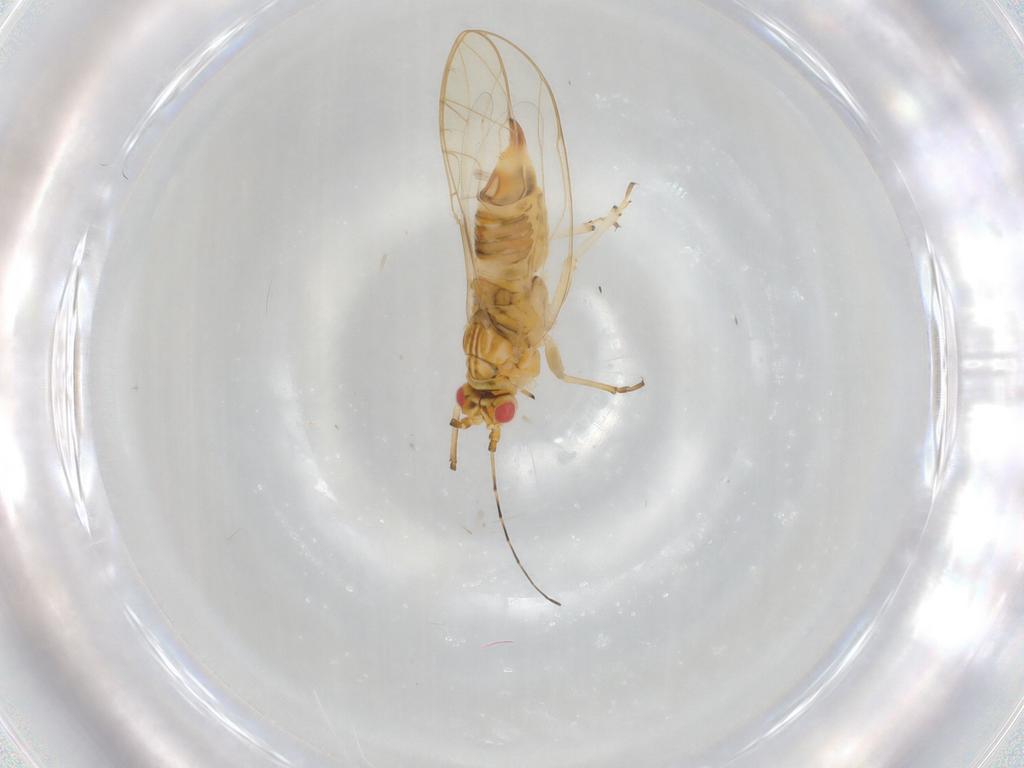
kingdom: Animalia
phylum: Arthropoda
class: Insecta
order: Hemiptera
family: Carsidaridae
